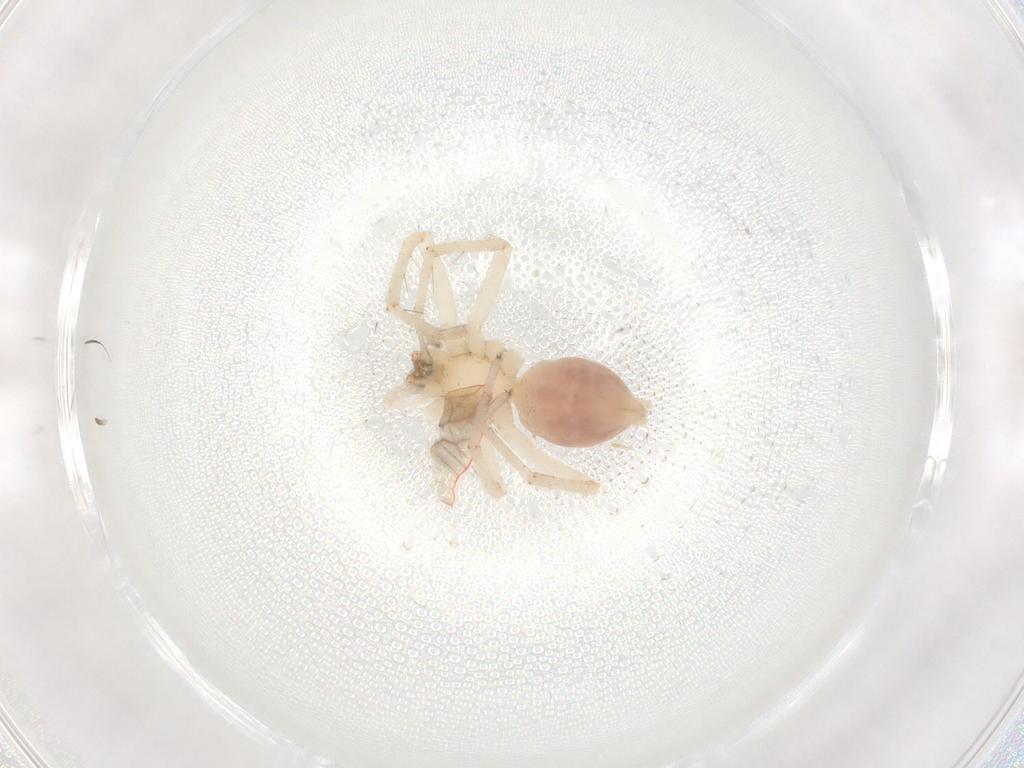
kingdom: Animalia
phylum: Arthropoda
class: Arachnida
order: Araneae
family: Anyphaenidae
